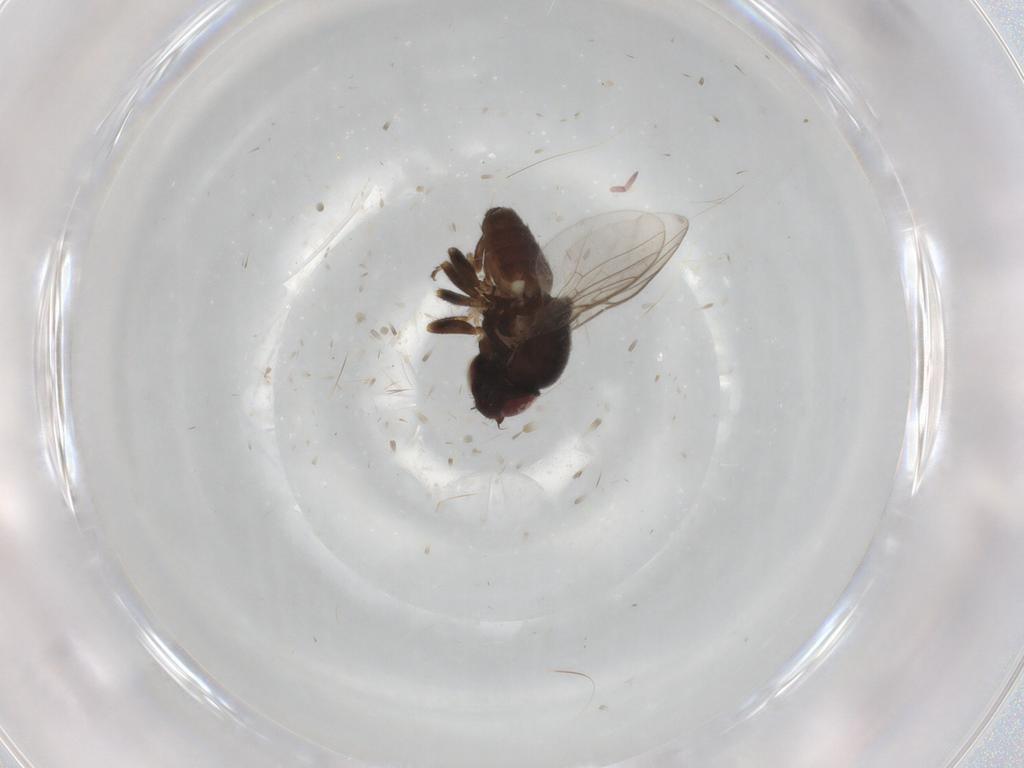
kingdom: Animalia
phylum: Arthropoda
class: Insecta
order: Diptera
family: Chloropidae
